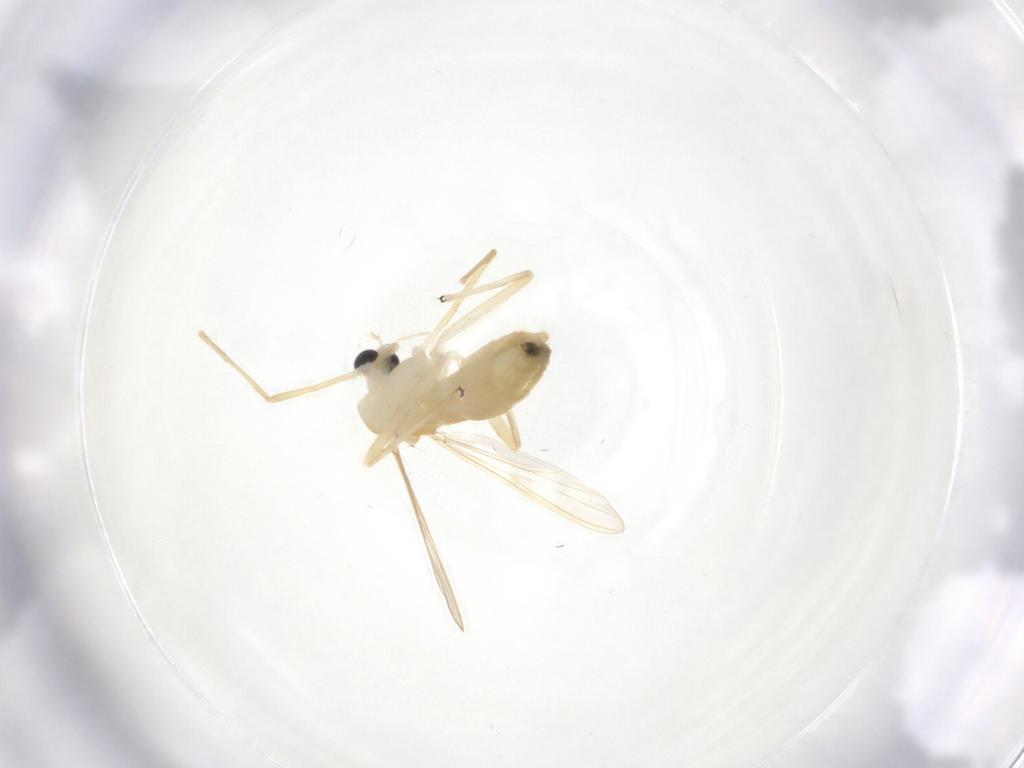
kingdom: Animalia
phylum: Arthropoda
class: Insecta
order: Diptera
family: Chironomidae
